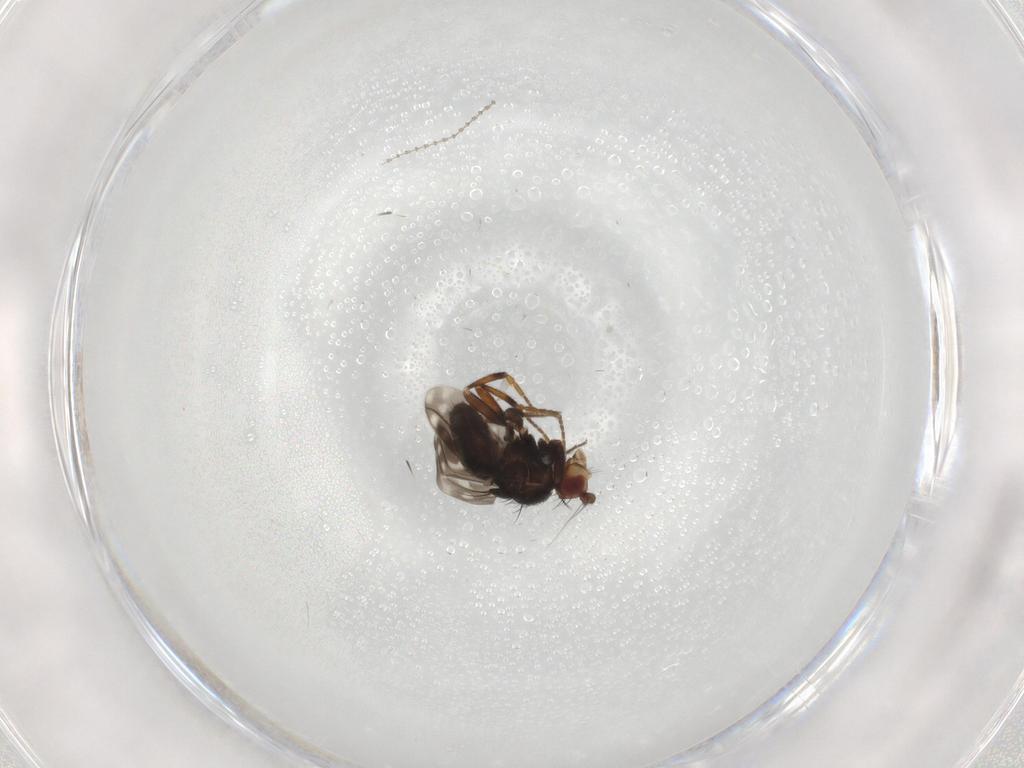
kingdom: Animalia
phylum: Arthropoda
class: Insecta
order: Diptera
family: Sphaeroceridae
